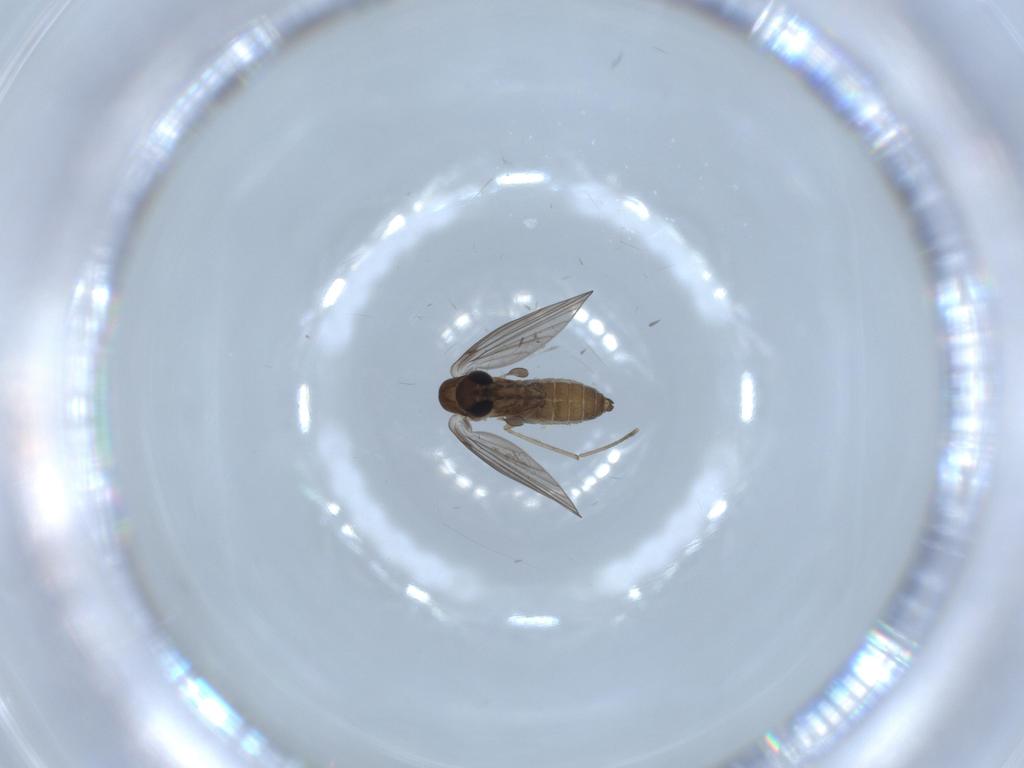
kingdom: Animalia
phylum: Arthropoda
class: Insecta
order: Diptera
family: Psychodidae
